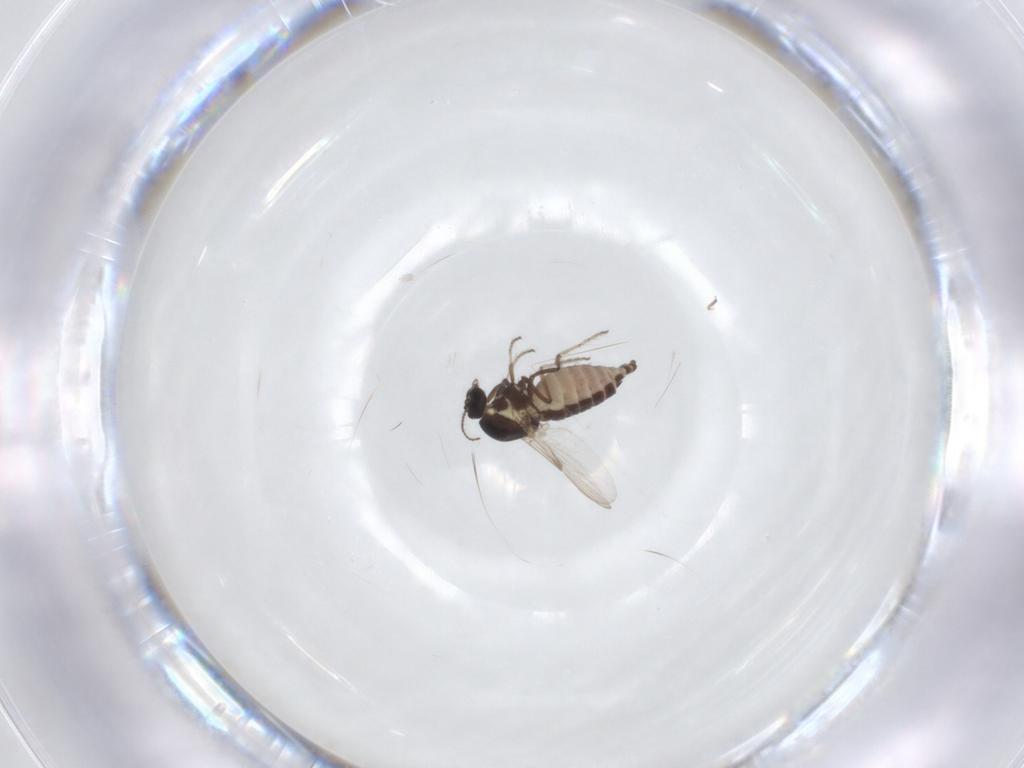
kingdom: Animalia
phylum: Arthropoda
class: Insecta
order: Diptera
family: Ceratopogonidae
